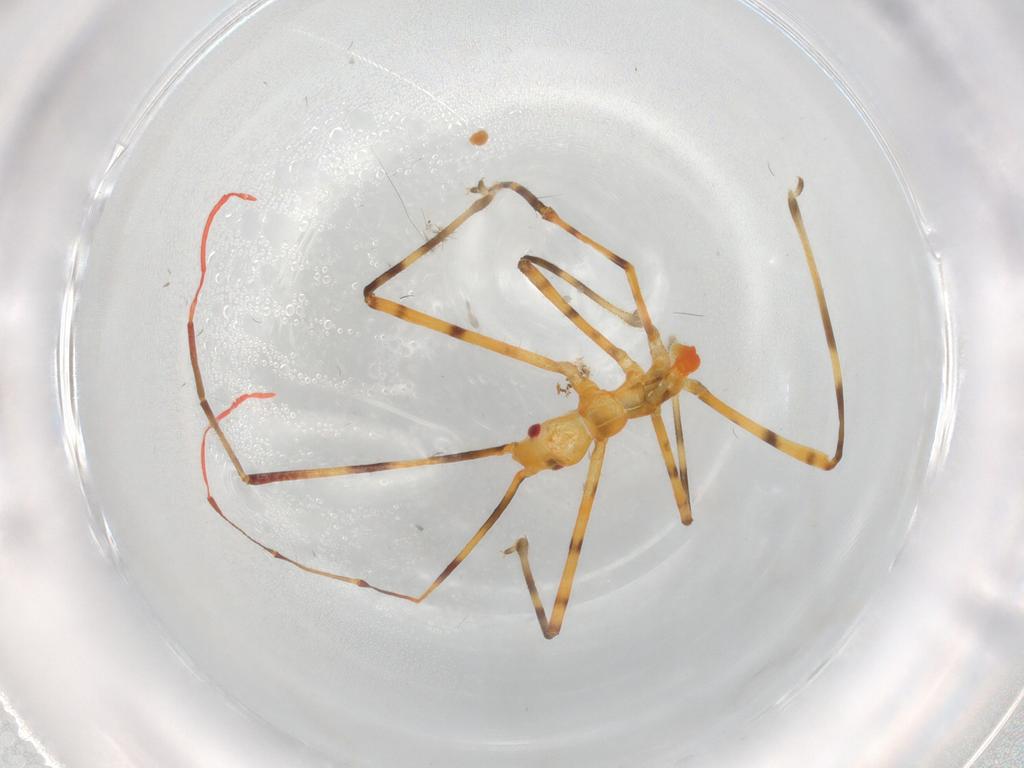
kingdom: Animalia
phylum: Arthropoda
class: Insecta
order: Hemiptera
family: Reduviidae
